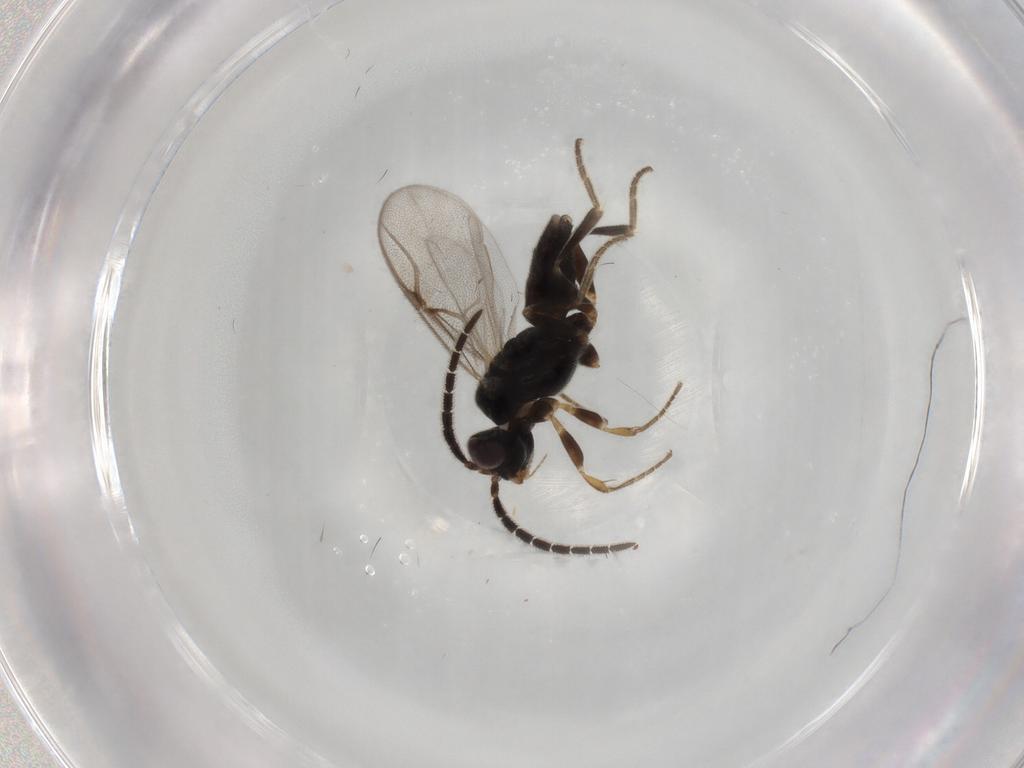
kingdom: Animalia
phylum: Arthropoda
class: Insecta
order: Hymenoptera
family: Dryinidae
